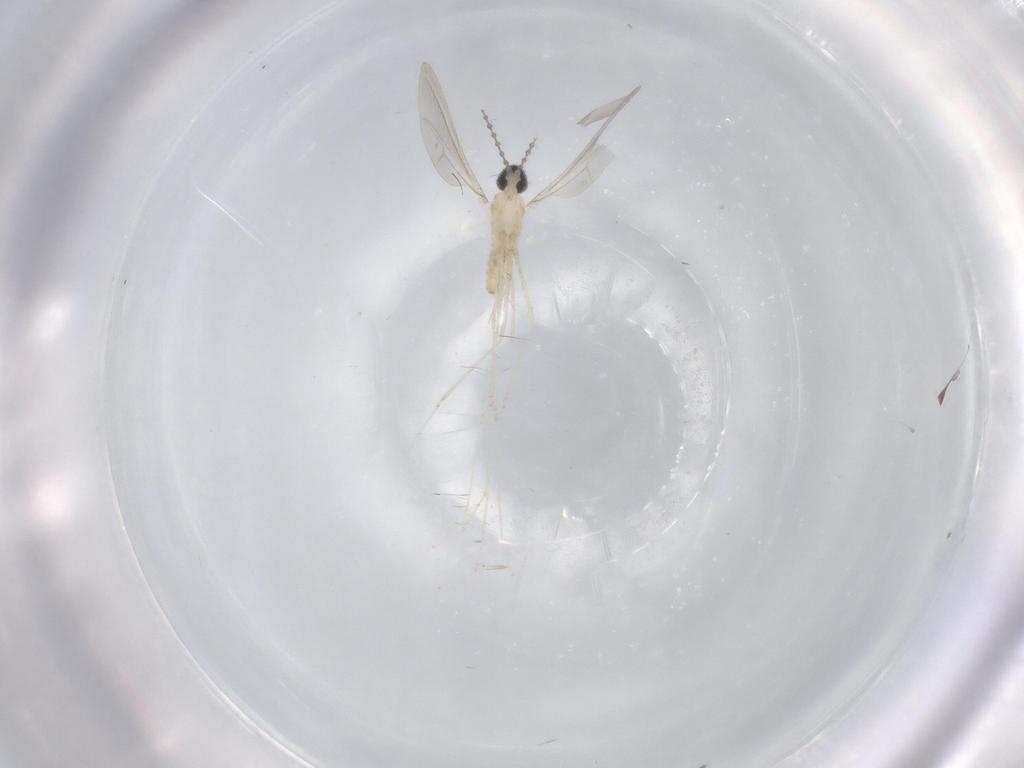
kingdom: Animalia
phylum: Arthropoda
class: Insecta
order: Diptera
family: Cecidomyiidae
